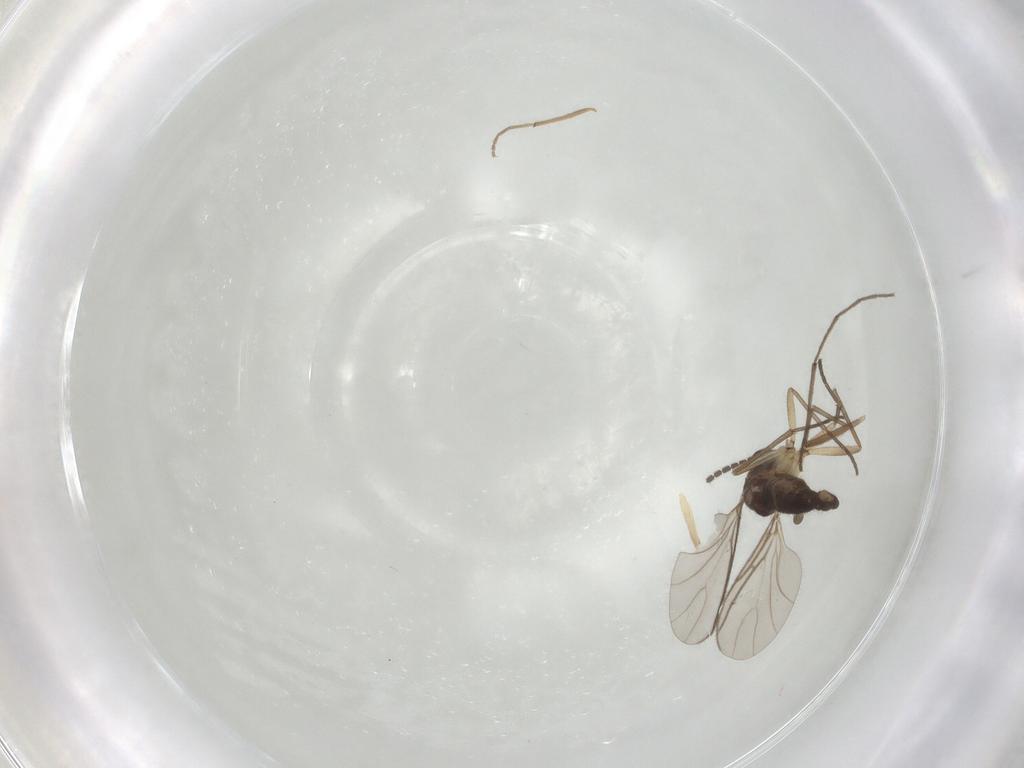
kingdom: Animalia
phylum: Arthropoda
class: Insecta
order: Diptera
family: Sciaridae
